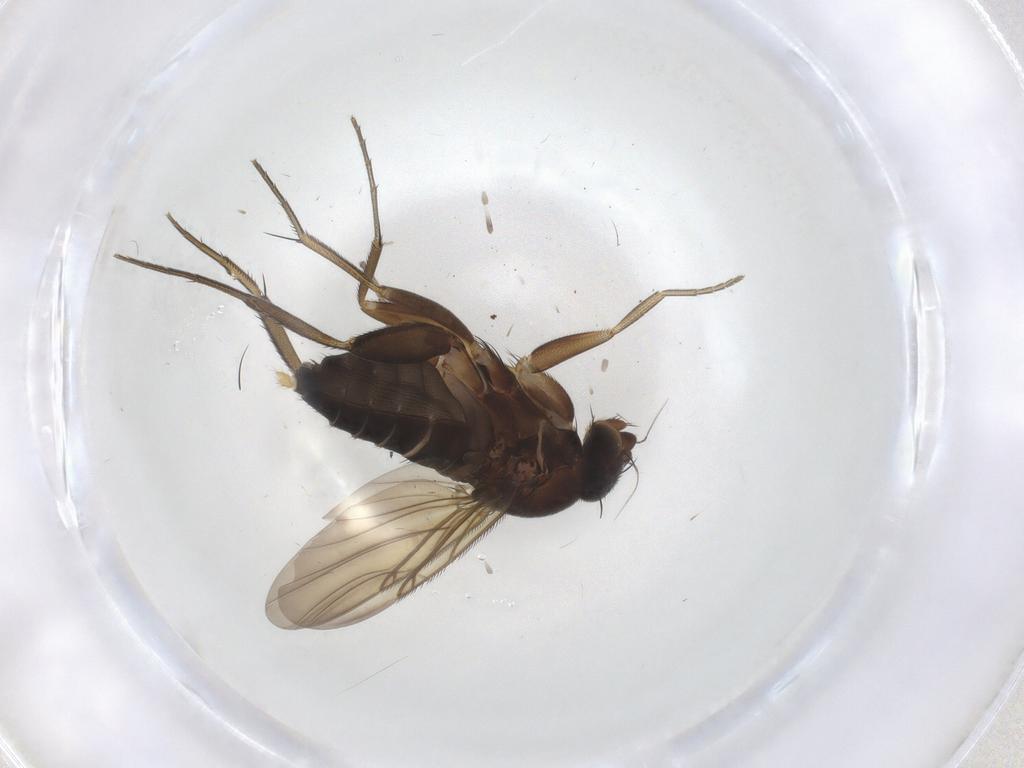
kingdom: Animalia
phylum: Arthropoda
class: Insecta
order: Diptera
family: Phoridae
